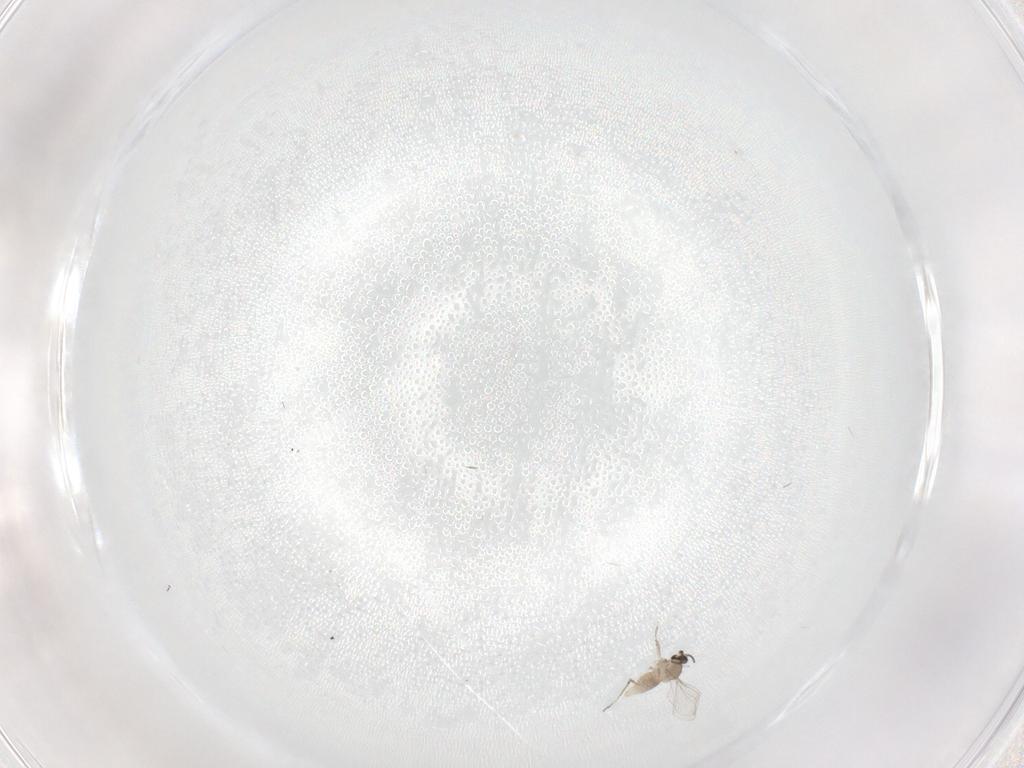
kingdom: Animalia
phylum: Arthropoda
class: Insecta
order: Diptera
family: Cecidomyiidae
